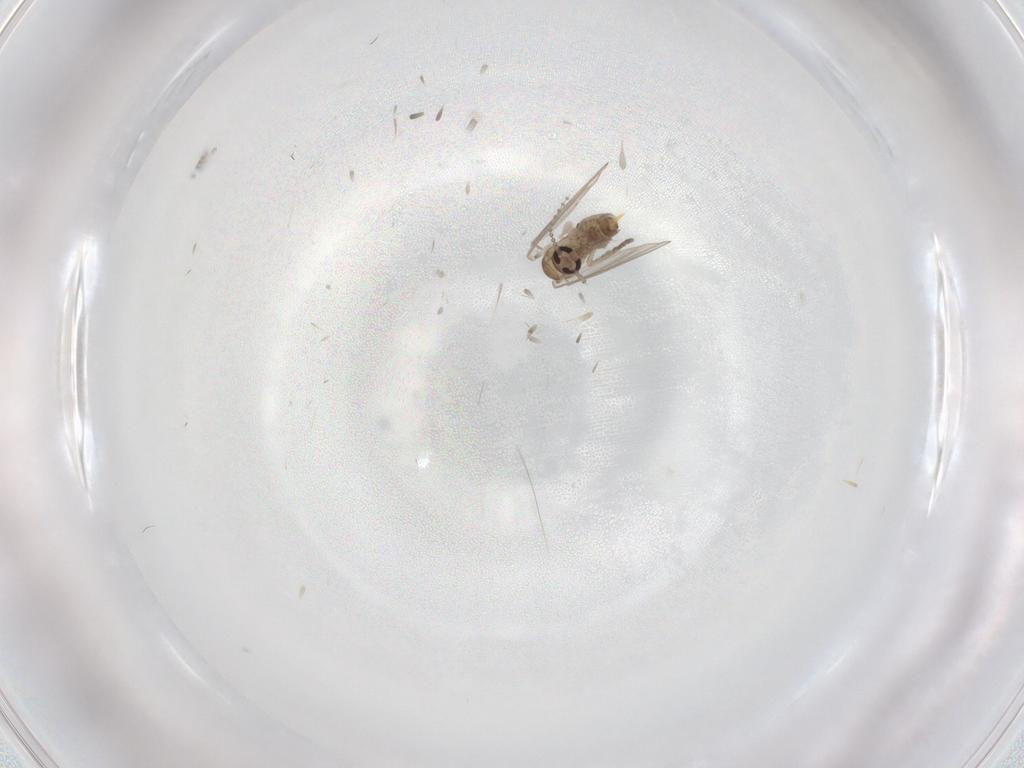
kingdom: Animalia
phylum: Arthropoda
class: Insecta
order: Diptera
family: Psychodidae
